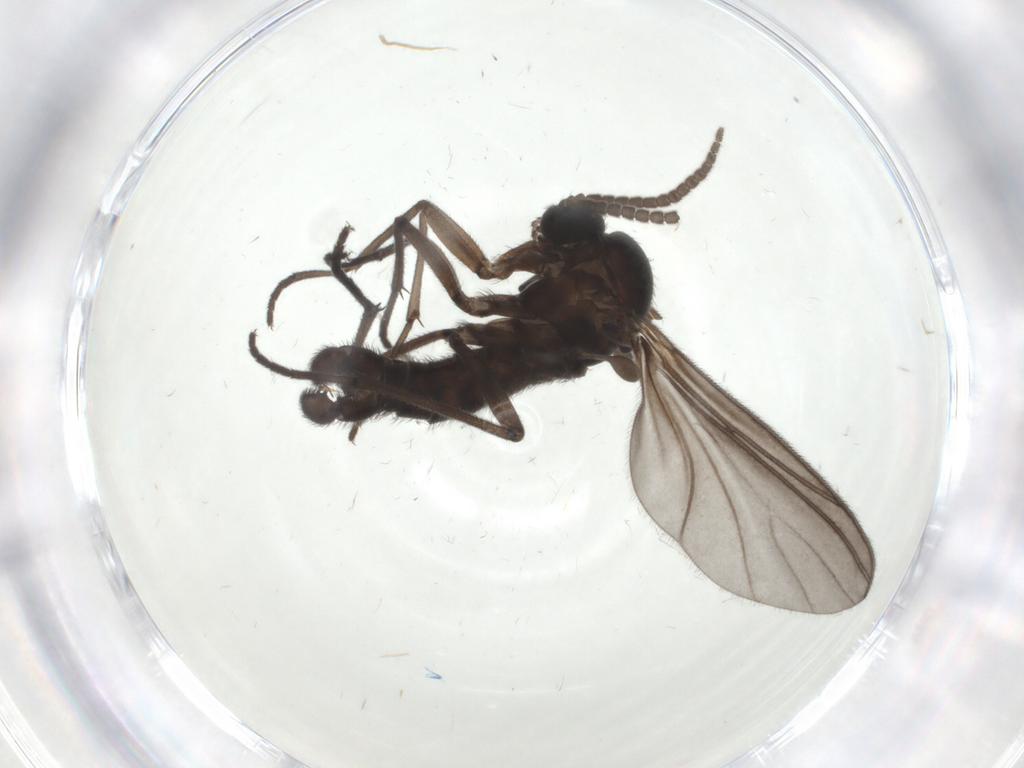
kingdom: Animalia
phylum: Arthropoda
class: Insecta
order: Diptera
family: Sciaridae
